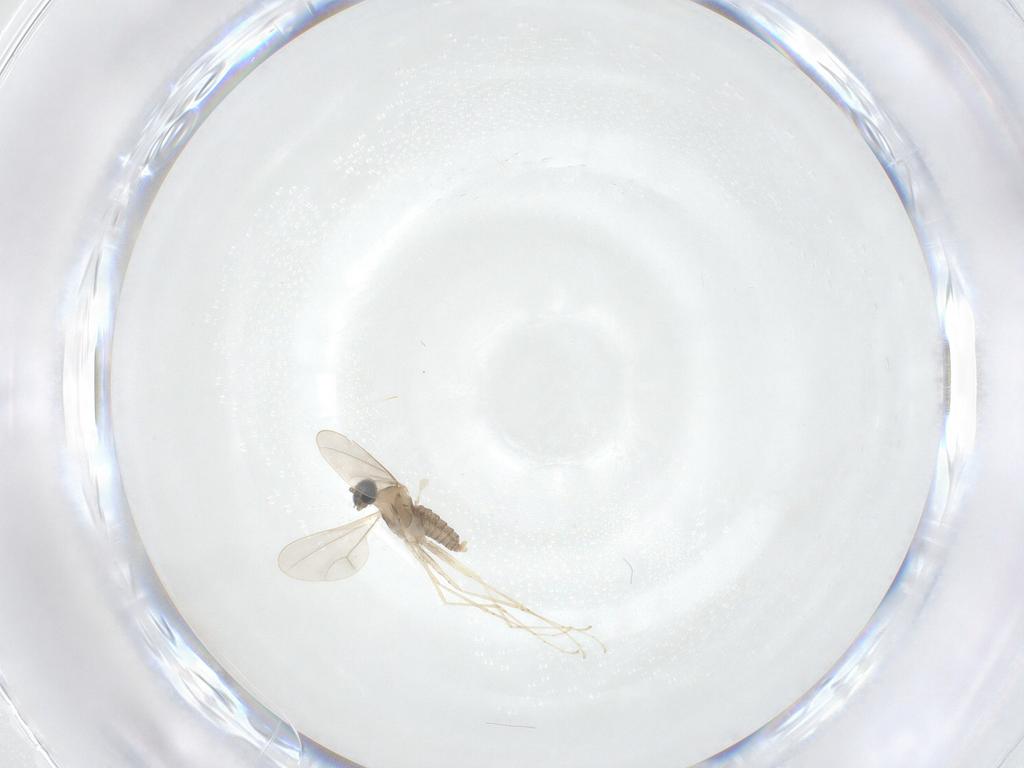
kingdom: Animalia
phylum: Arthropoda
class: Insecta
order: Diptera
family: Psychodidae
